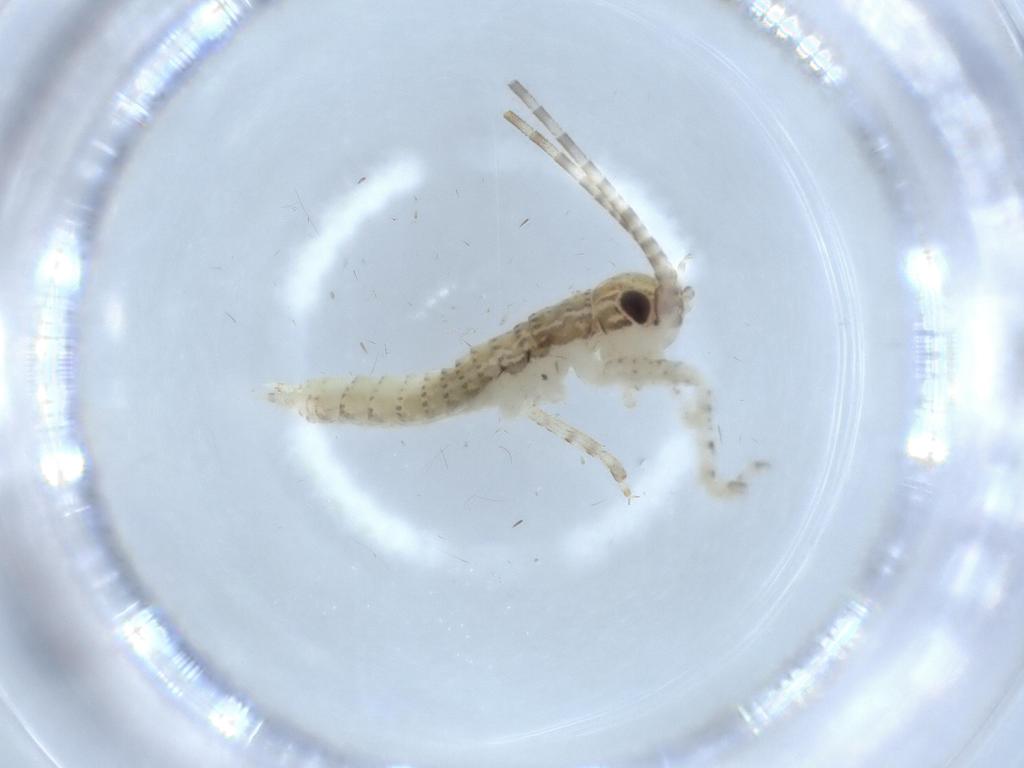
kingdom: Animalia
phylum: Arthropoda
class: Insecta
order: Orthoptera
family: Gryllidae
